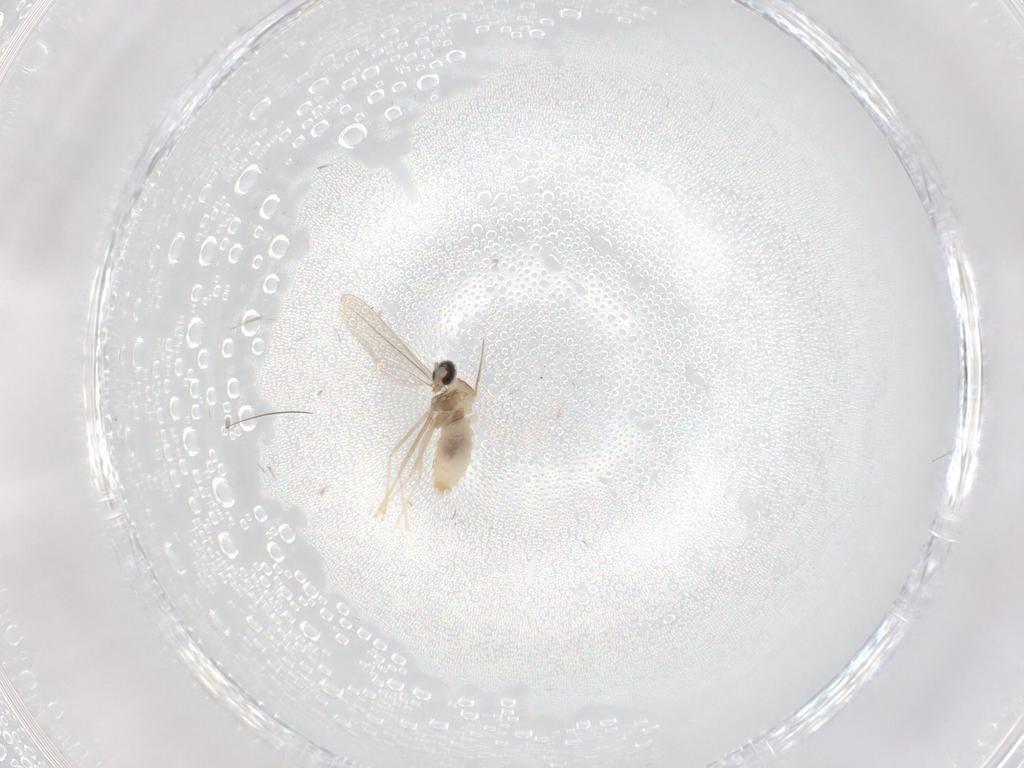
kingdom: Animalia
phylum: Arthropoda
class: Insecta
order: Diptera
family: Cecidomyiidae
